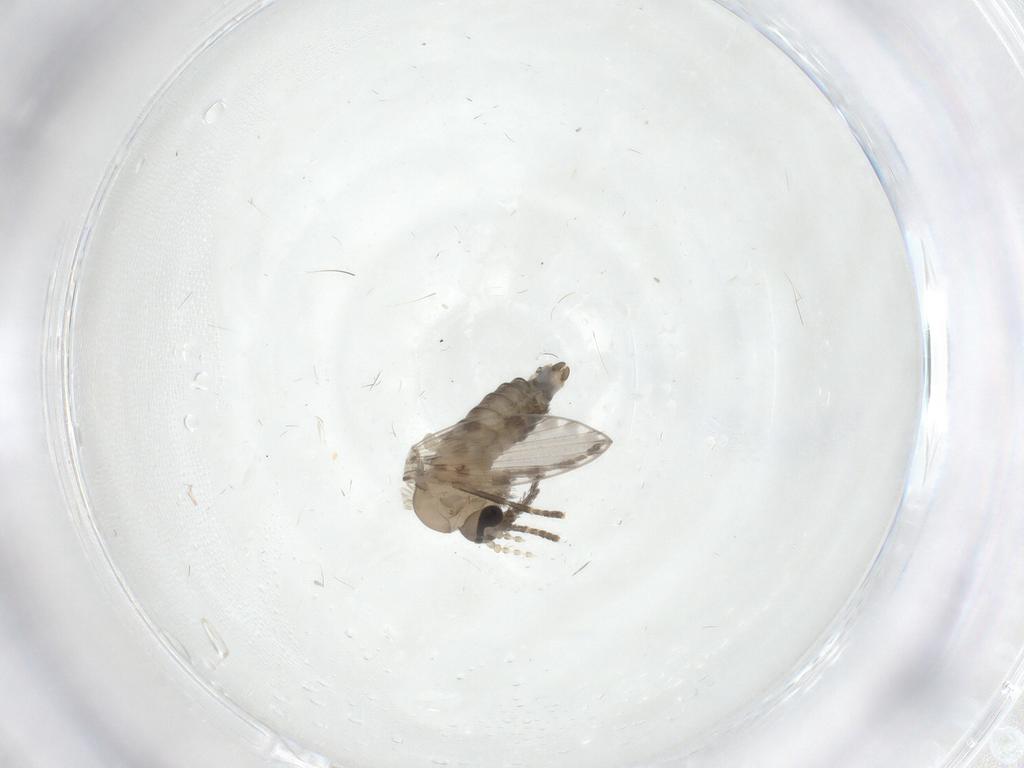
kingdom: Animalia
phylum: Arthropoda
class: Insecta
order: Diptera
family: Psychodidae
